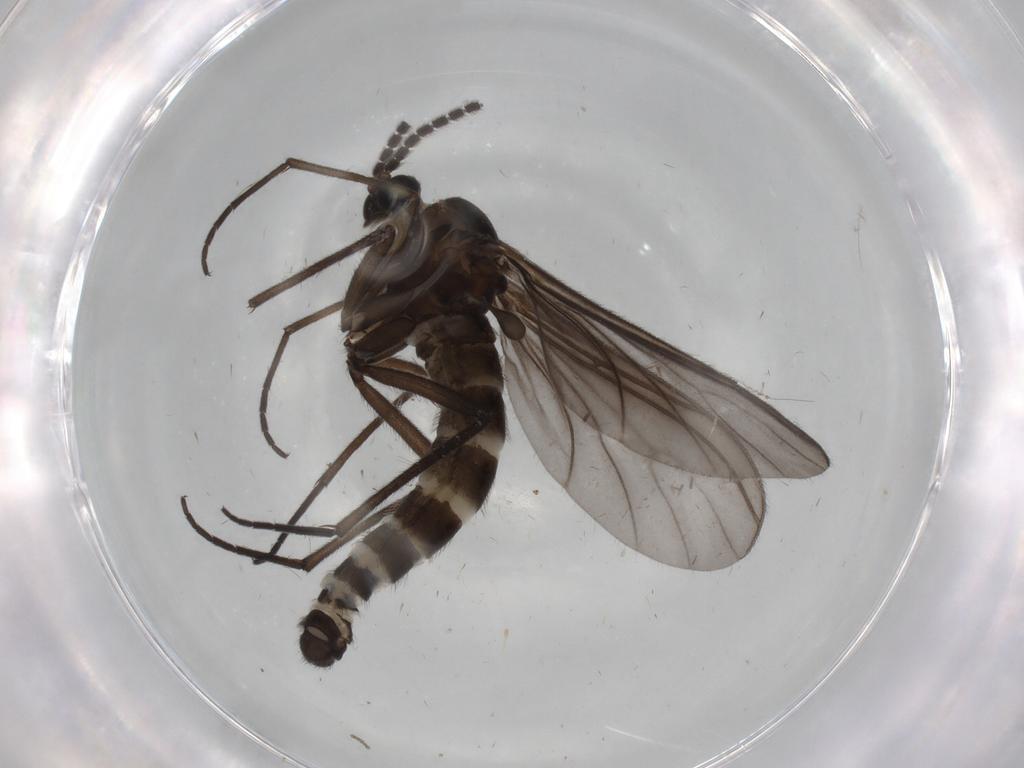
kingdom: Animalia
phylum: Arthropoda
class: Insecta
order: Diptera
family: Sciaridae
